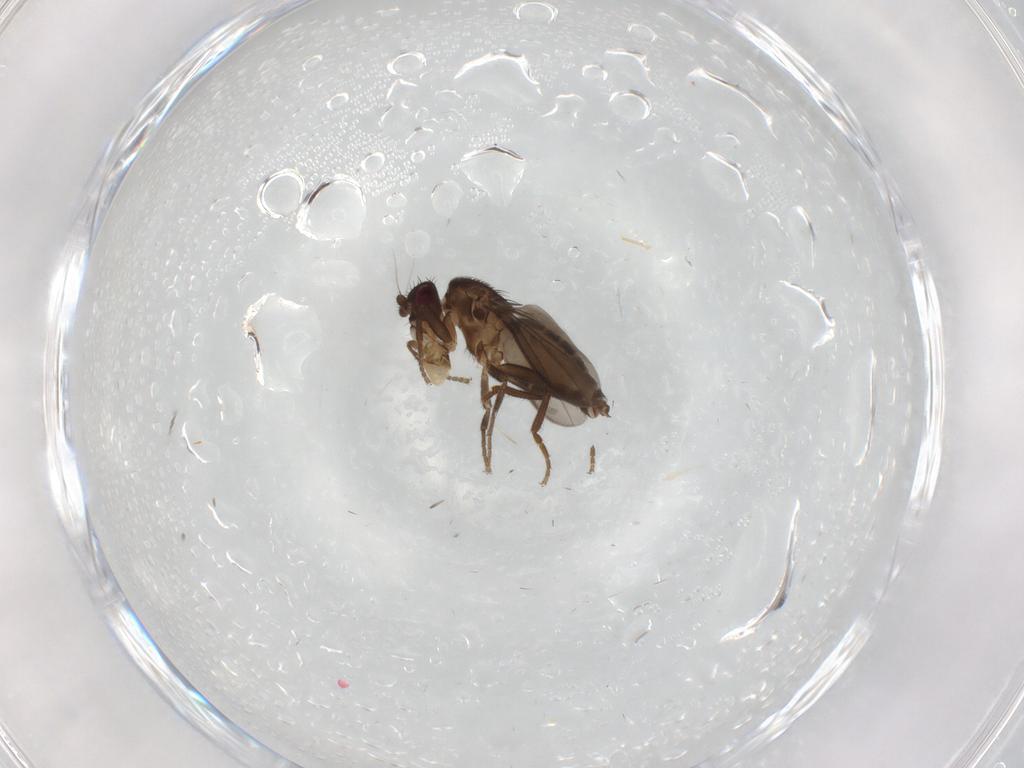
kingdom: Animalia
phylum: Arthropoda
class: Insecta
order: Diptera
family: Sphaeroceridae
